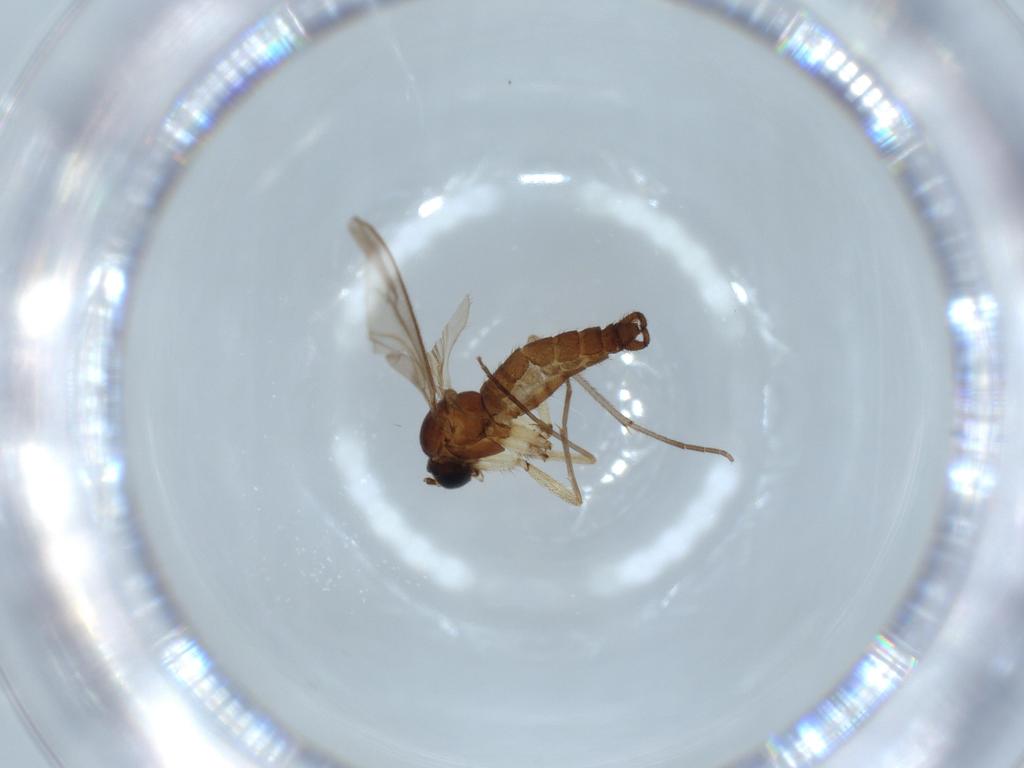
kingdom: Animalia
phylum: Arthropoda
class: Insecta
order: Diptera
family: Sciaridae
